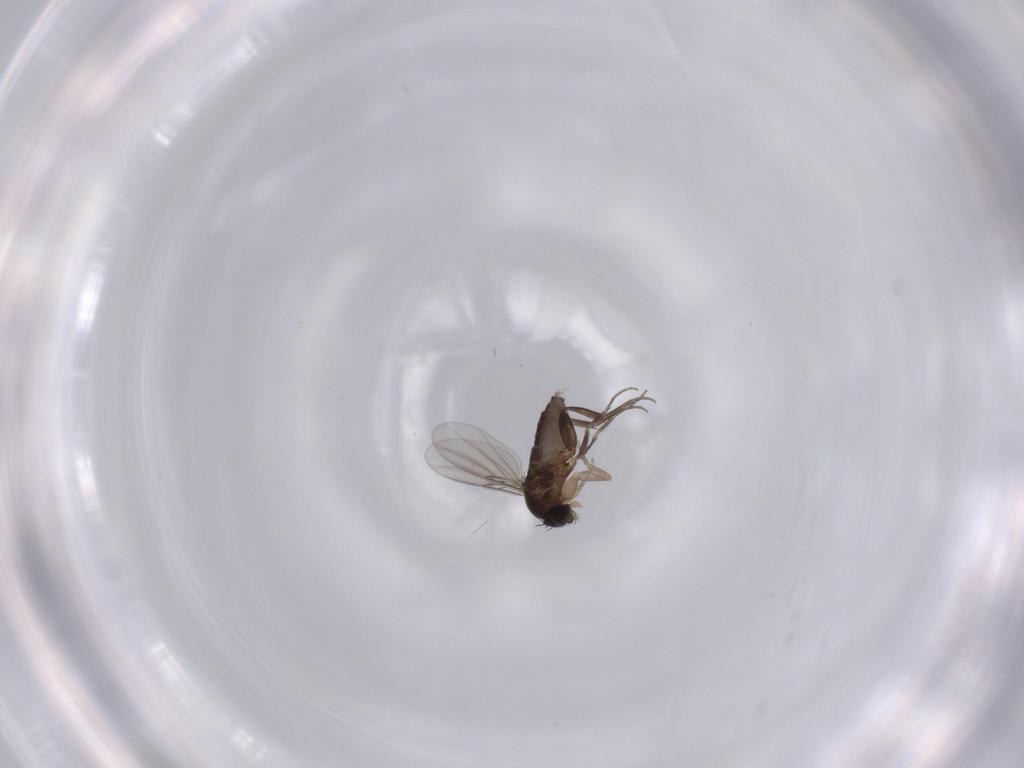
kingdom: Animalia
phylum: Arthropoda
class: Insecta
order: Diptera
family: Phoridae
